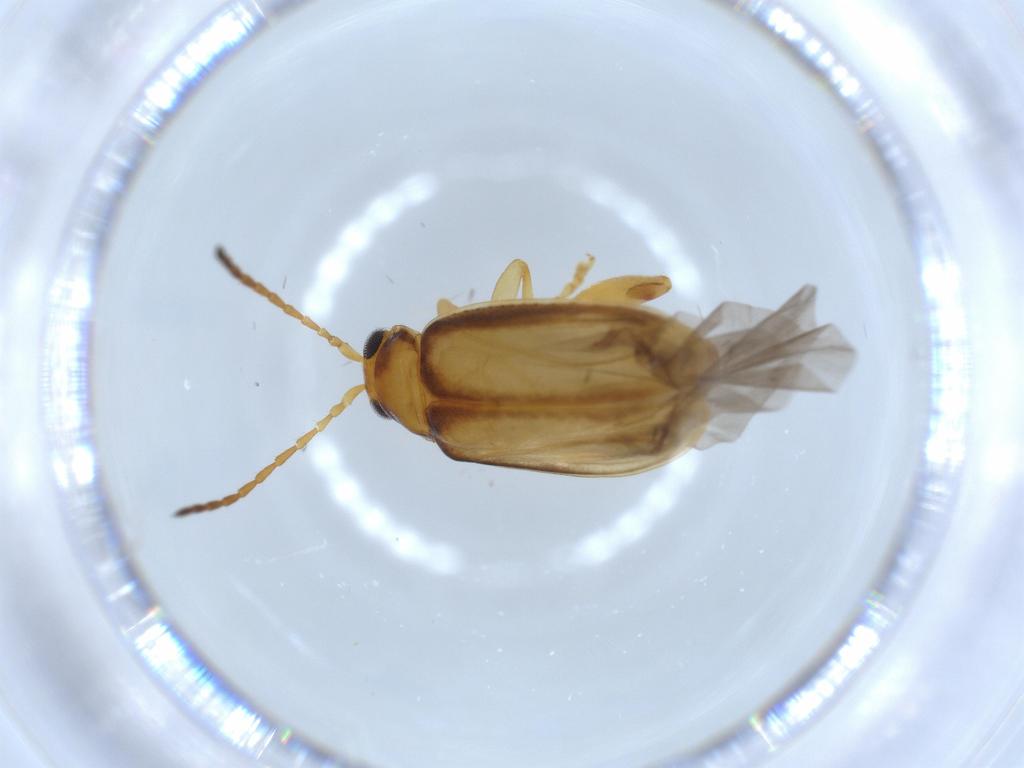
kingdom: Animalia
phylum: Arthropoda
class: Insecta
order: Coleoptera
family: Chrysomelidae
